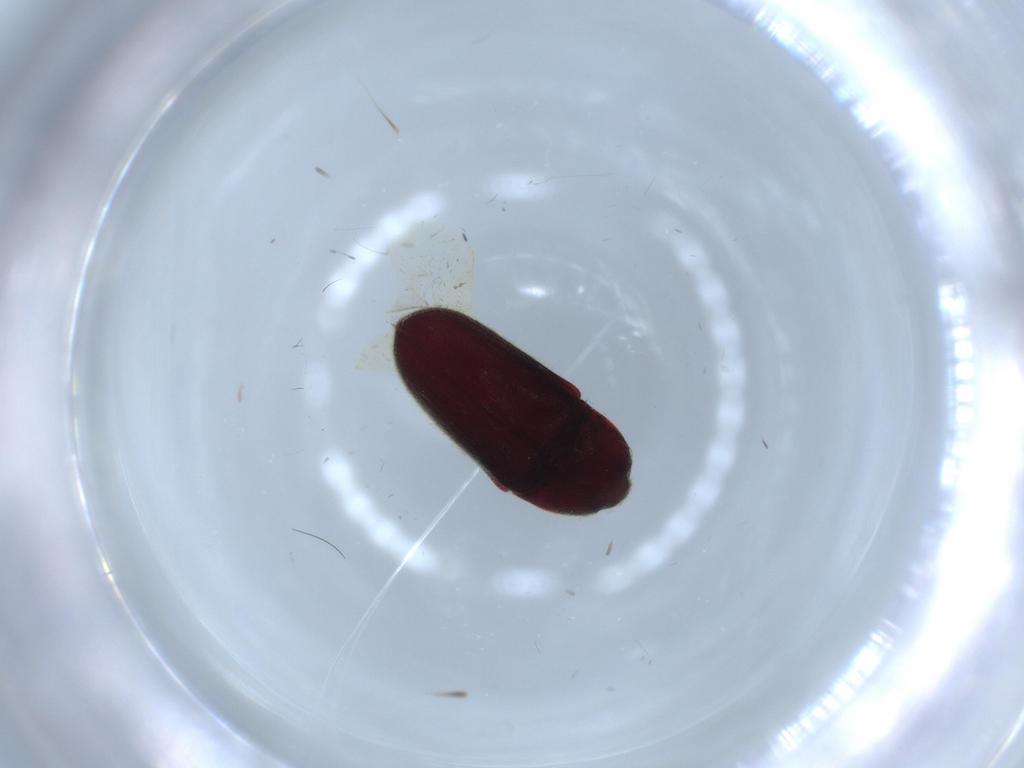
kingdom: Animalia
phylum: Arthropoda
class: Insecta
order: Coleoptera
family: Throscidae
